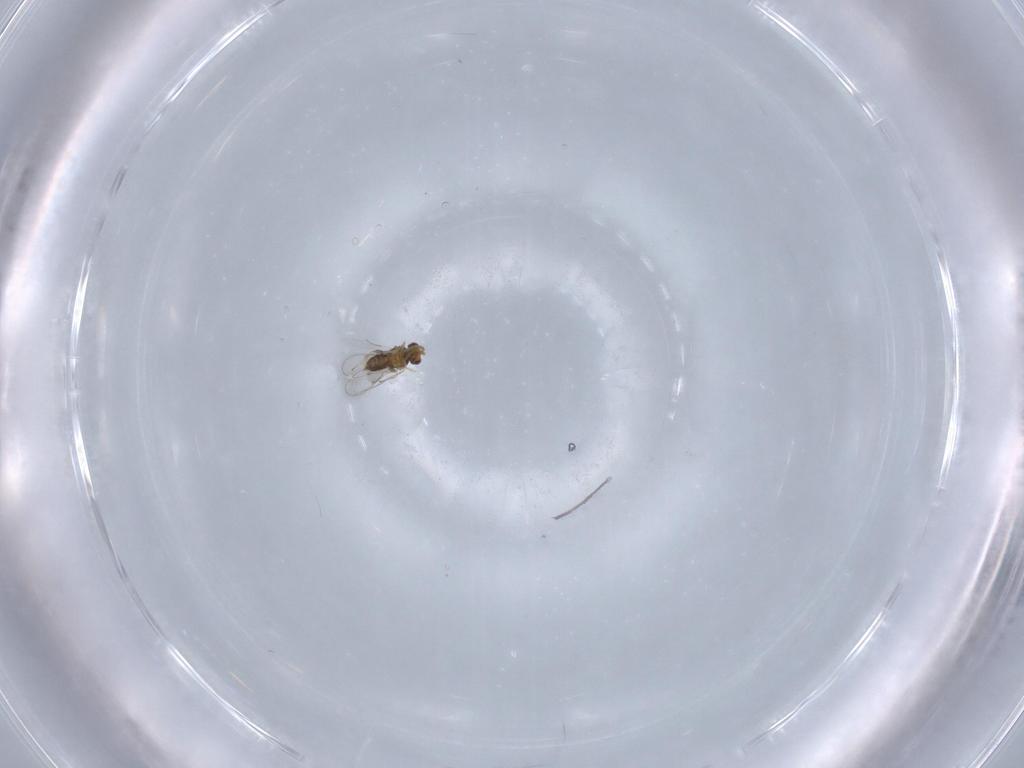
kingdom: Animalia
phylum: Arthropoda
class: Insecta
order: Hymenoptera
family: Aphelinidae
